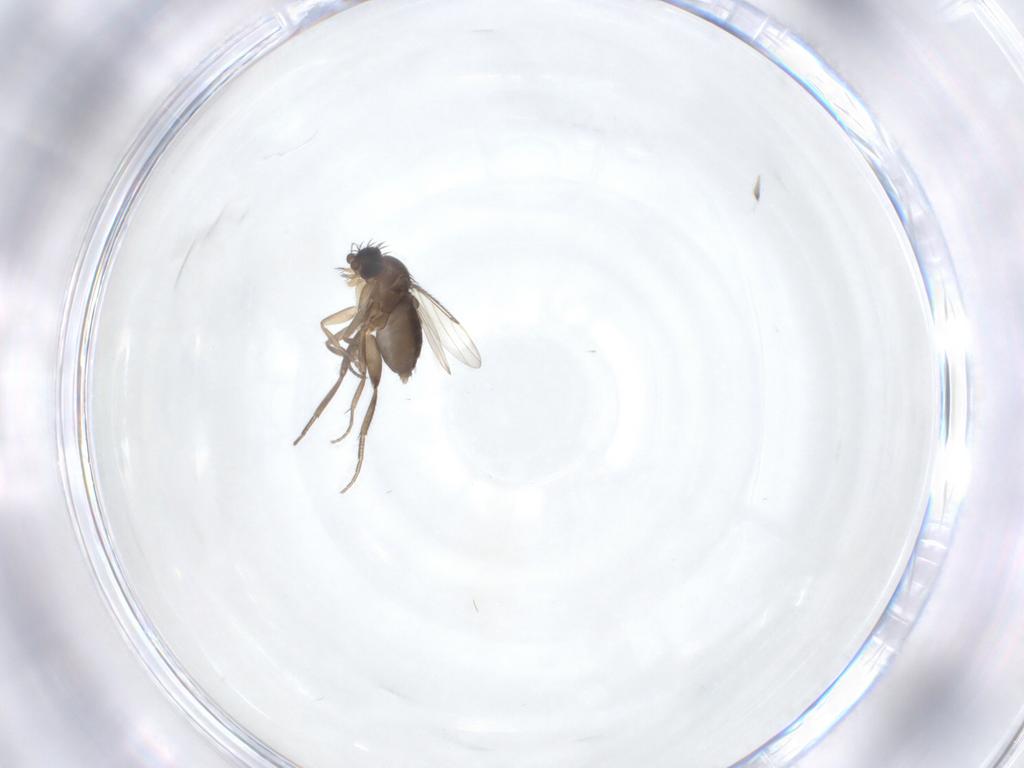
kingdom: Animalia
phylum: Arthropoda
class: Insecta
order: Diptera
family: Phoridae
